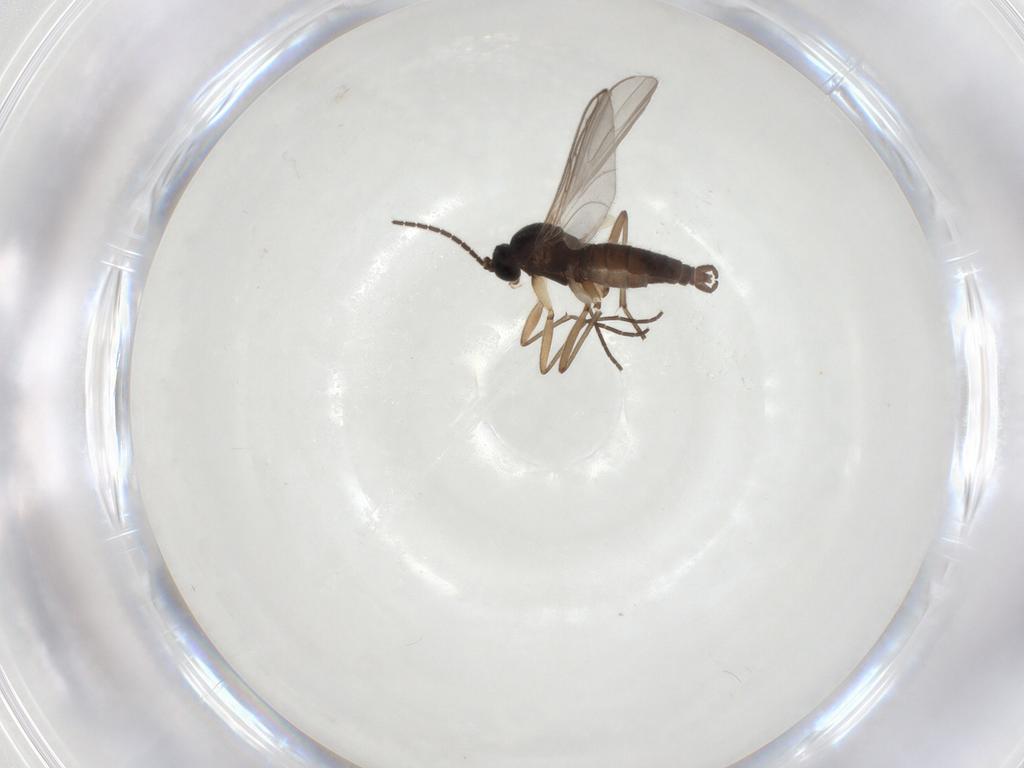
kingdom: Animalia
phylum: Arthropoda
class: Insecta
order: Diptera
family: Sciaridae
